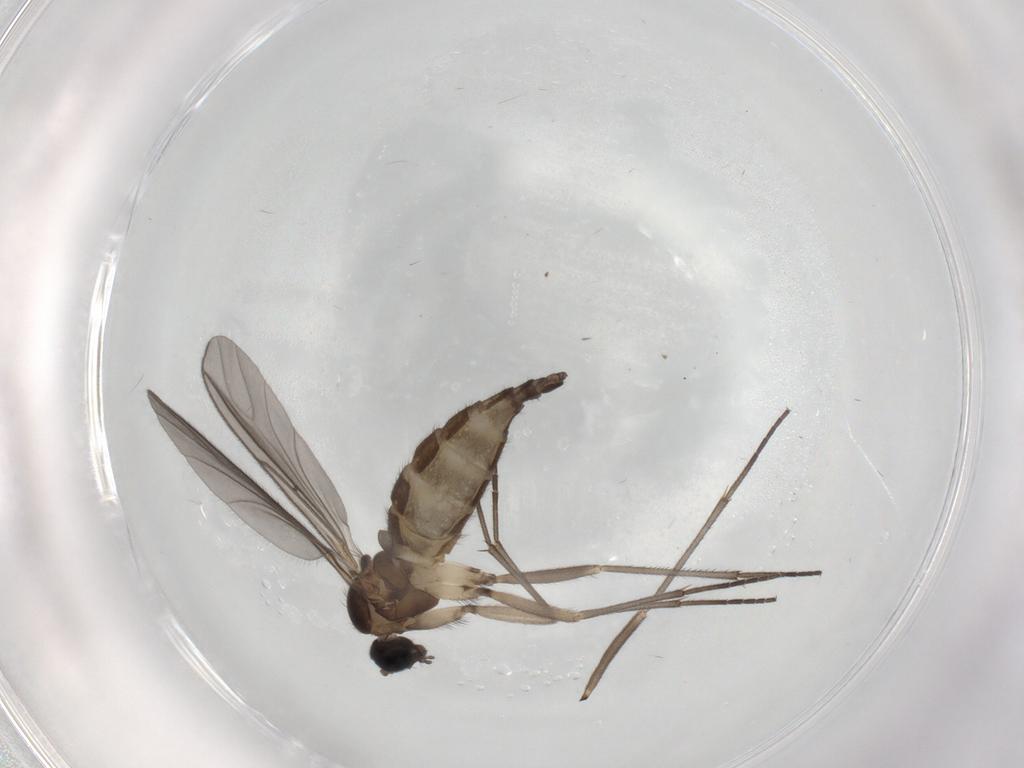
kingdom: Animalia
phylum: Arthropoda
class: Insecta
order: Diptera
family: Sciaridae
